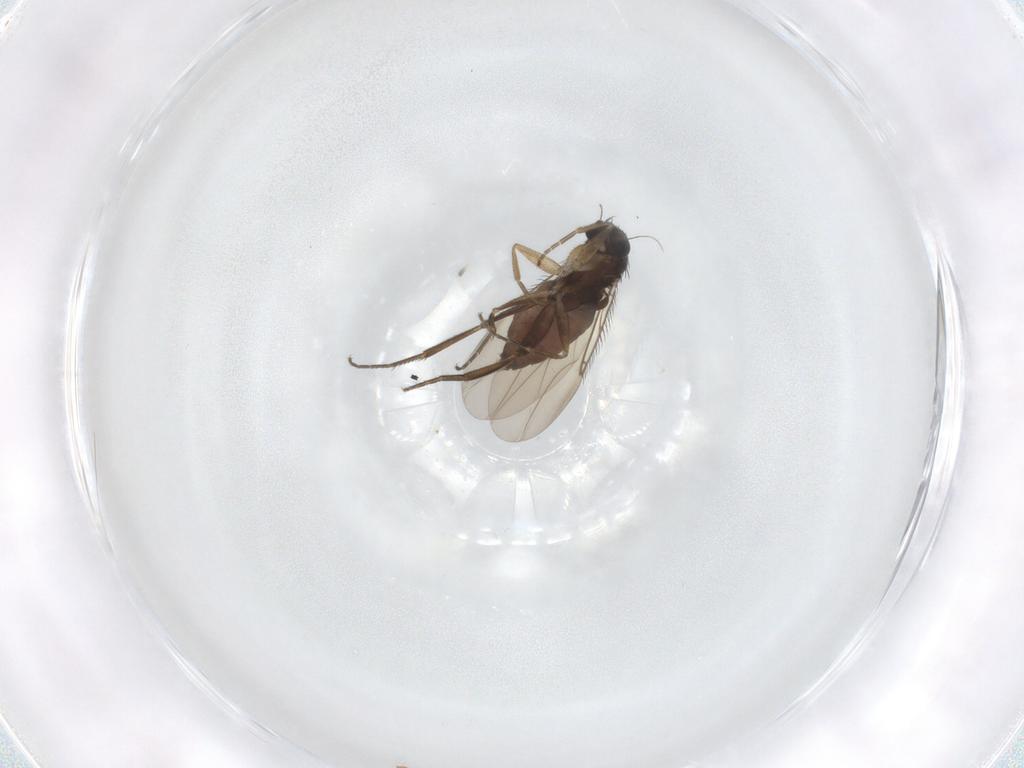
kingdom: Animalia
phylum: Arthropoda
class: Insecta
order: Diptera
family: Phoridae
